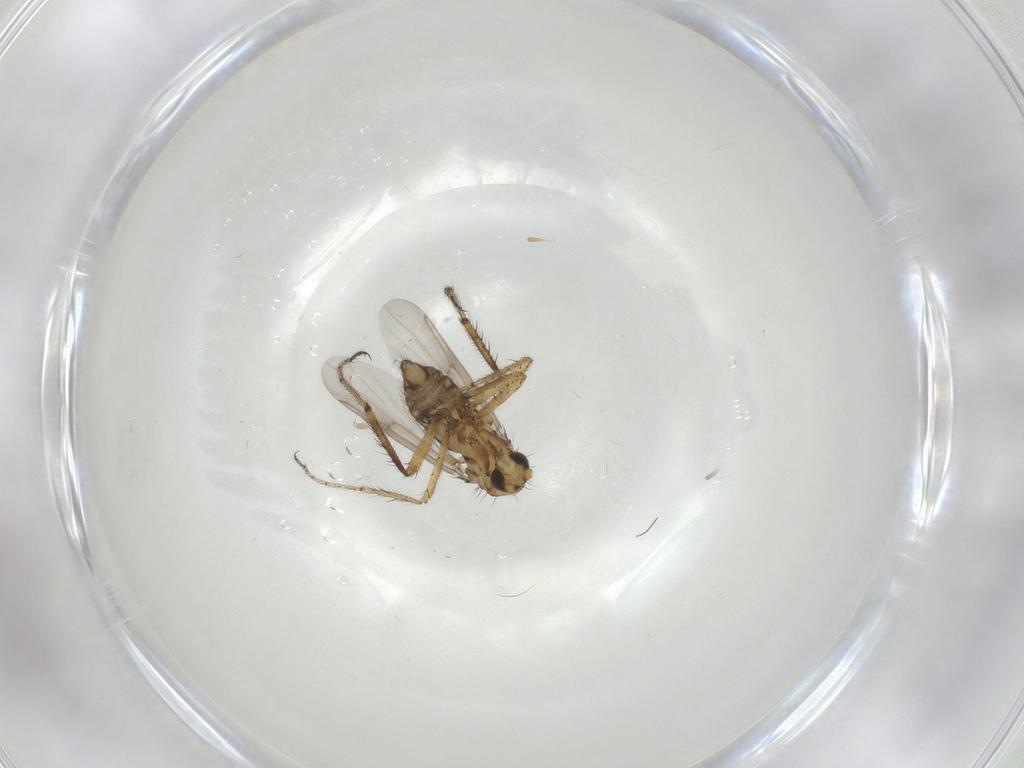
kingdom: Animalia
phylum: Arthropoda
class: Insecta
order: Diptera
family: Ceratopogonidae
